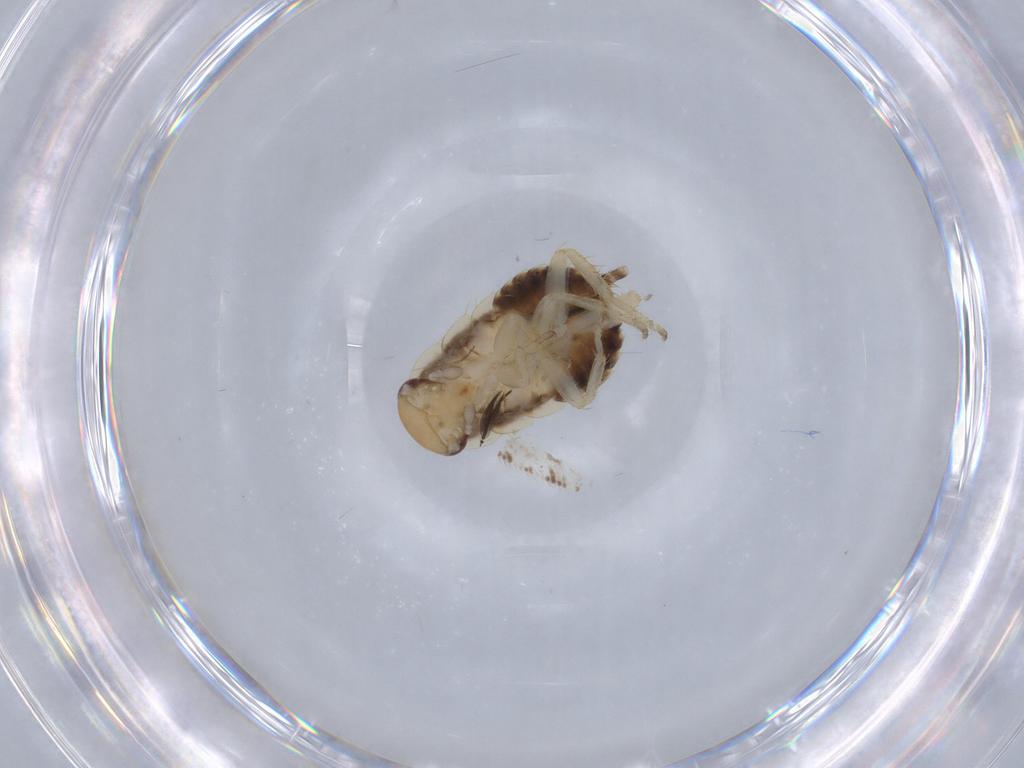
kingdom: Animalia
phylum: Arthropoda
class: Insecta
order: Blattodea
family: Ectobiidae
